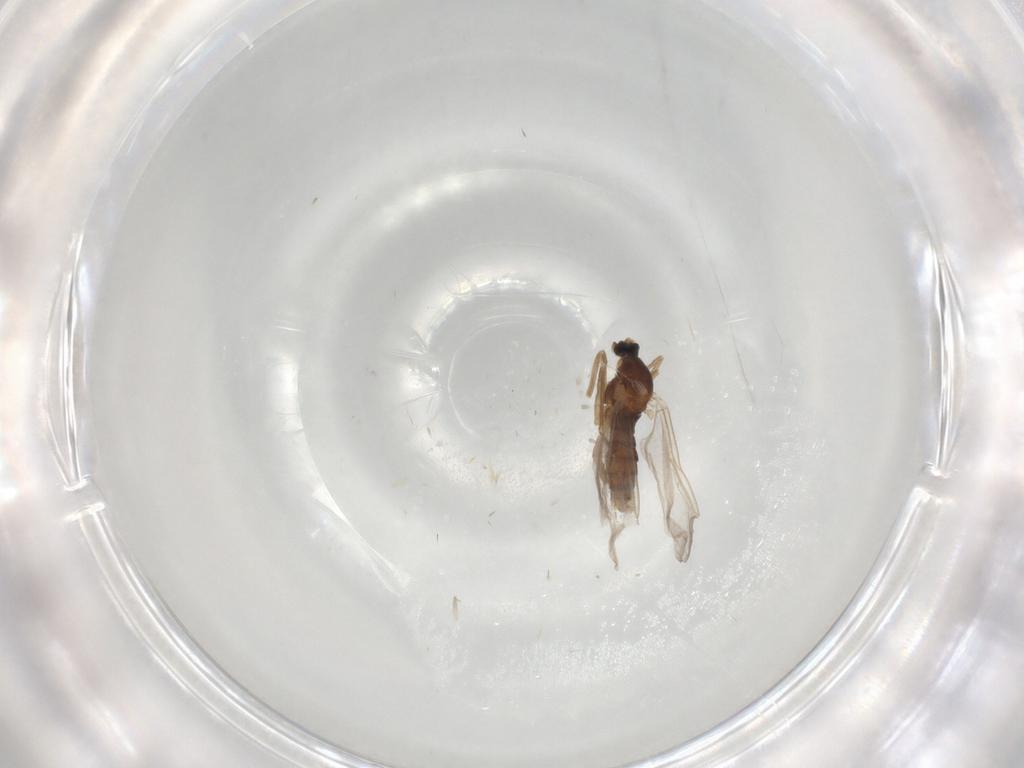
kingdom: Animalia
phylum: Arthropoda
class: Insecta
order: Diptera
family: Cecidomyiidae
